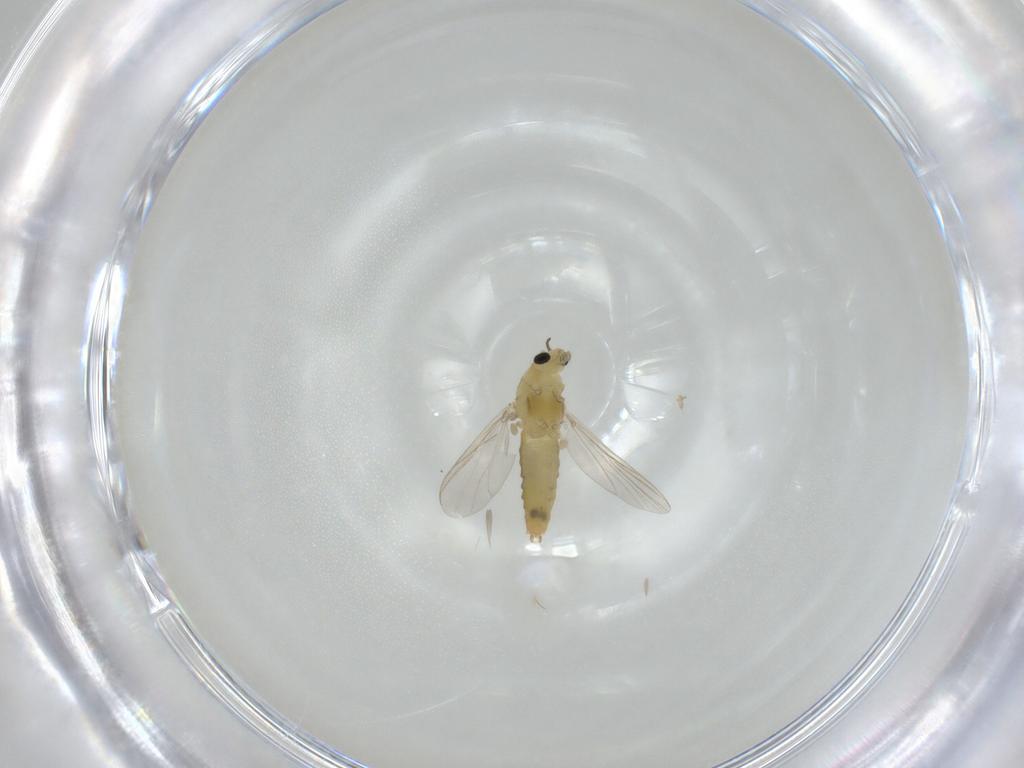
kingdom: Animalia
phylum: Arthropoda
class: Insecta
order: Diptera
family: Chironomidae
